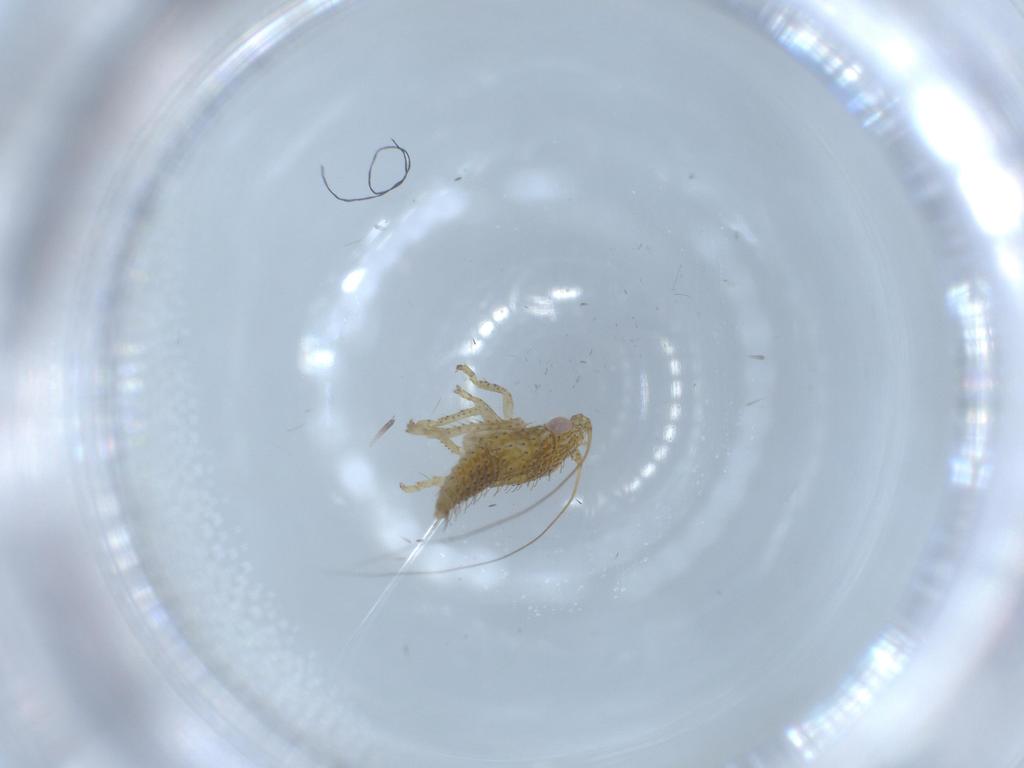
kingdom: Animalia
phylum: Arthropoda
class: Insecta
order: Hemiptera
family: Cicadellidae
